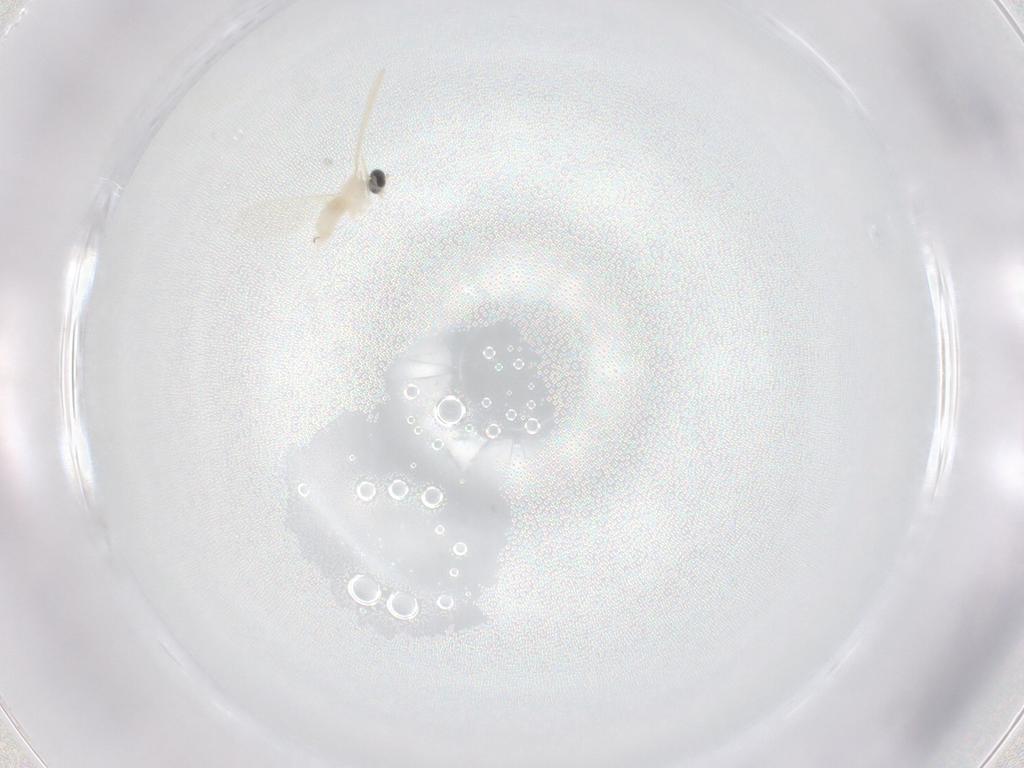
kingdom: Animalia
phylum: Arthropoda
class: Insecta
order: Diptera
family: Cecidomyiidae
